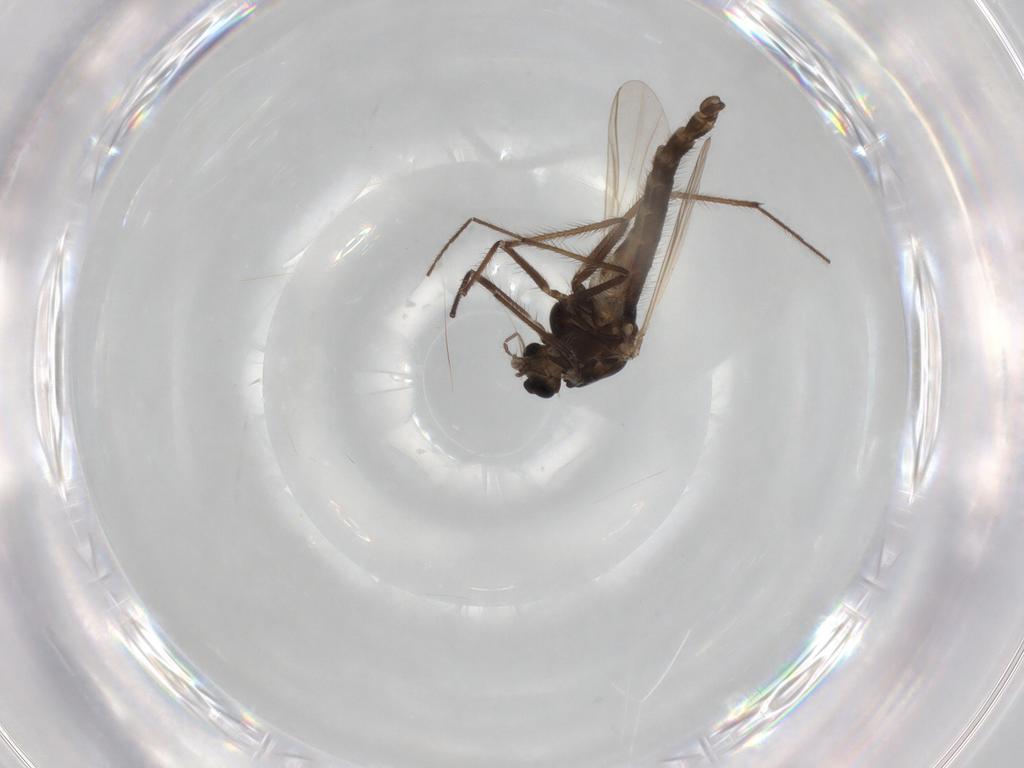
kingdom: Animalia
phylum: Arthropoda
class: Insecta
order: Diptera
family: Chironomidae
